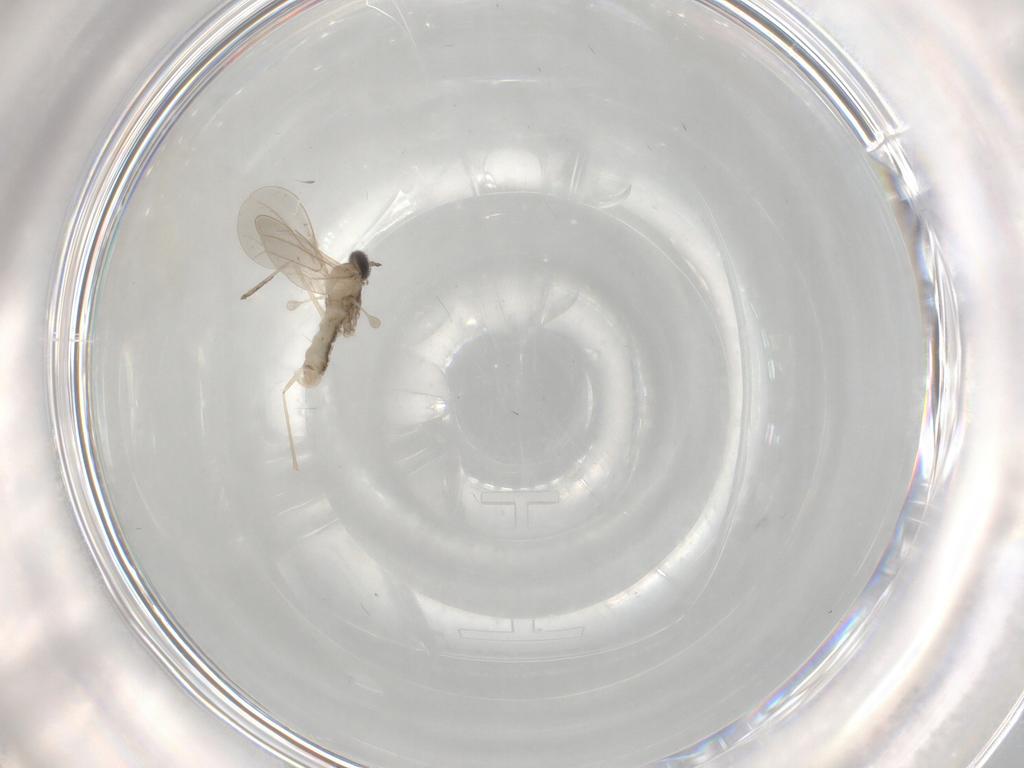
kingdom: Animalia
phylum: Arthropoda
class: Insecta
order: Diptera
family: Cecidomyiidae
